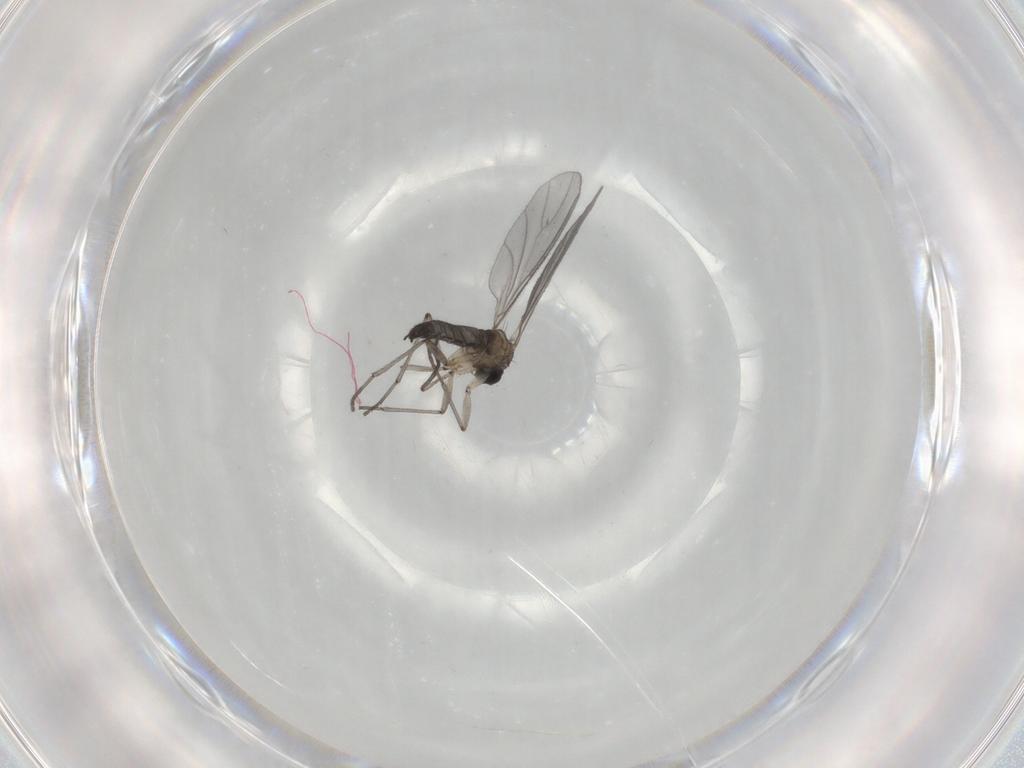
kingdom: Animalia
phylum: Arthropoda
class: Insecta
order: Diptera
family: Sciaridae
